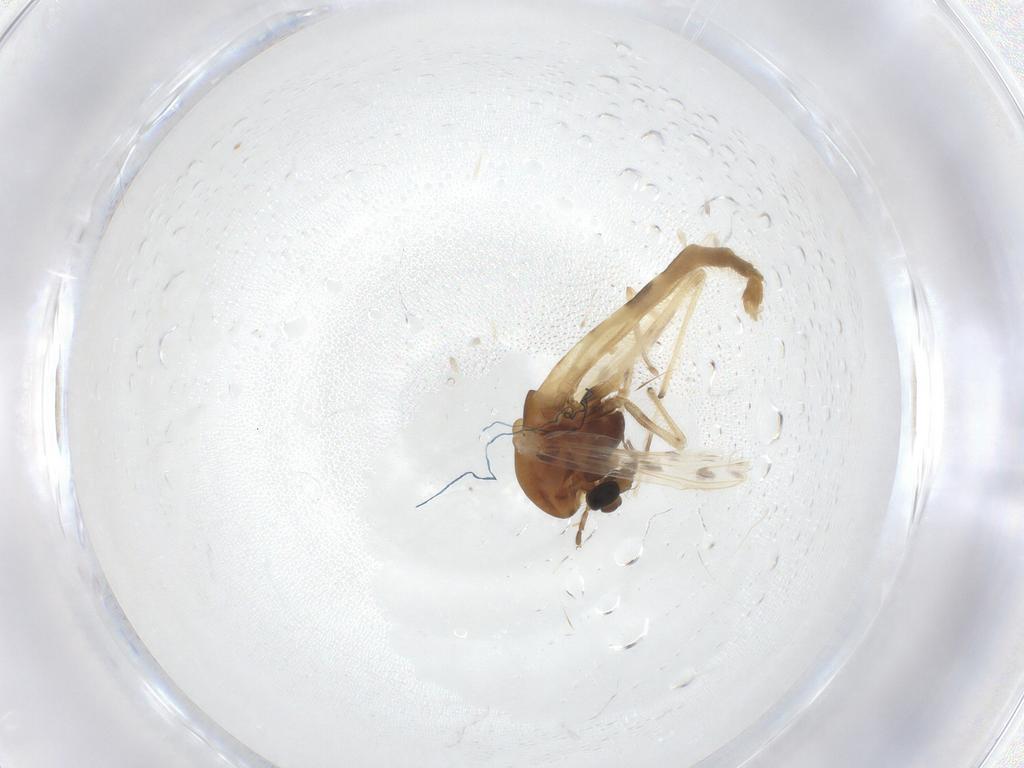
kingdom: Animalia
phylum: Arthropoda
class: Insecta
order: Diptera
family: Chironomidae
